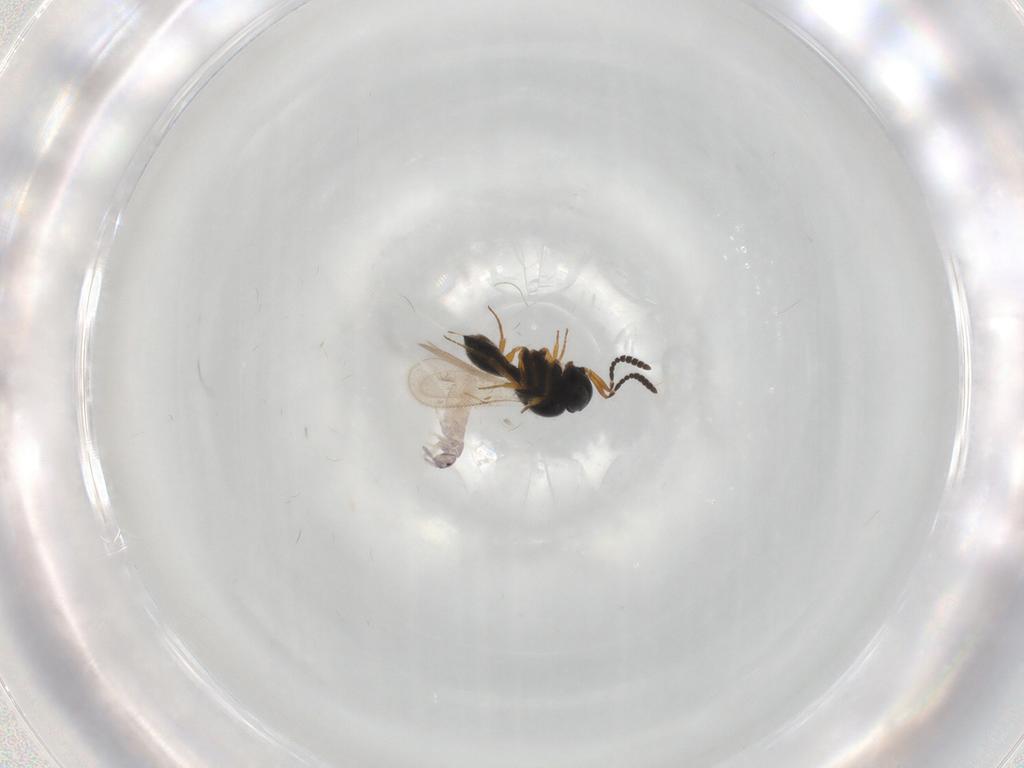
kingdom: Animalia
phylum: Arthropoda
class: Insecta
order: Hymenoptera
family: Scelionidae
